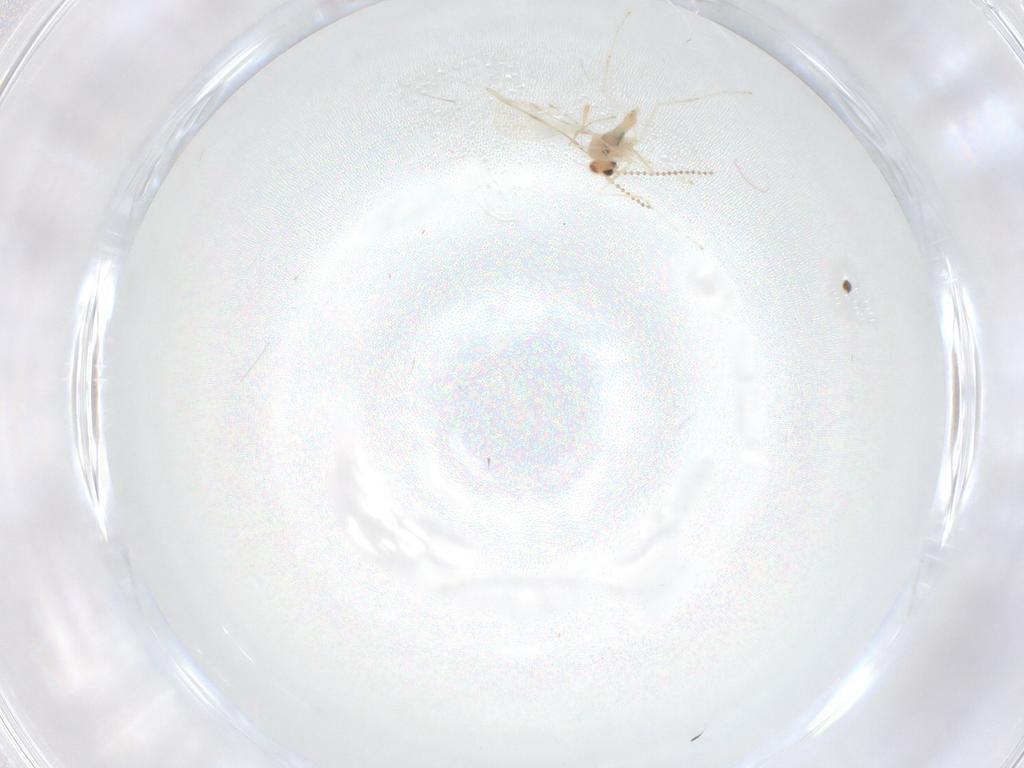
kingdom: Animalia
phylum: Arthropoda
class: Insecta
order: Diptera
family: Cecidomyiidae
